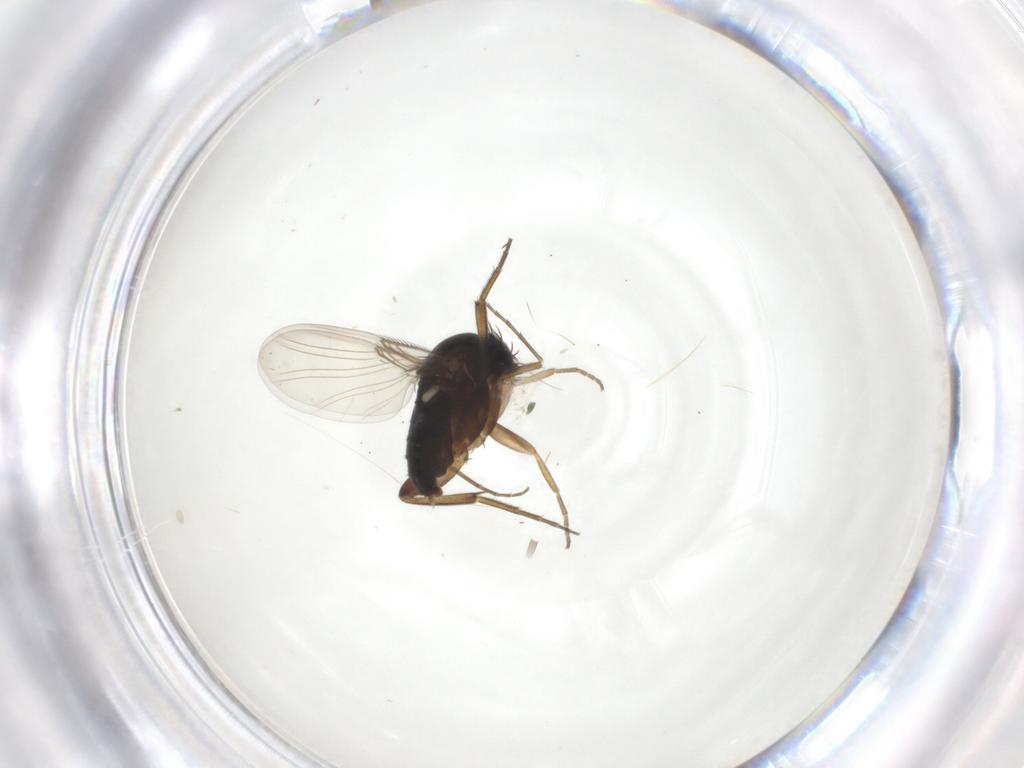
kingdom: Animalia
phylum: Arthropoda
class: Insecta
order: Diptera
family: Phoridae
